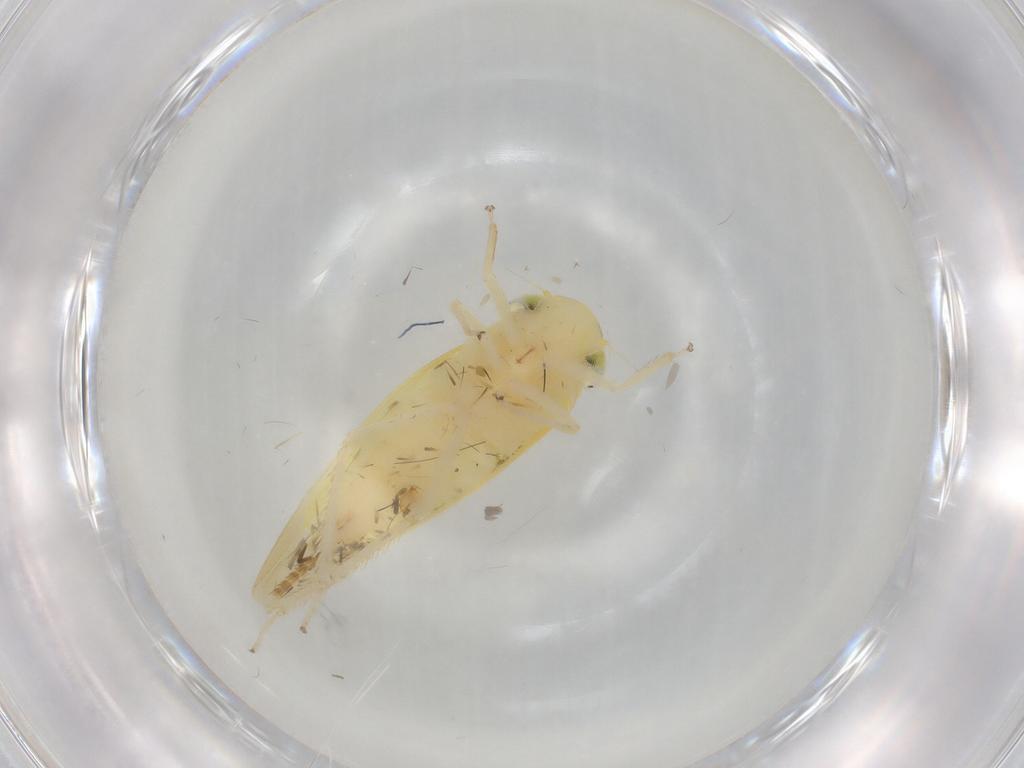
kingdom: Animalia
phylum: Arthropoda
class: Insecta
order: Hemiptera
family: Cicadellidae
